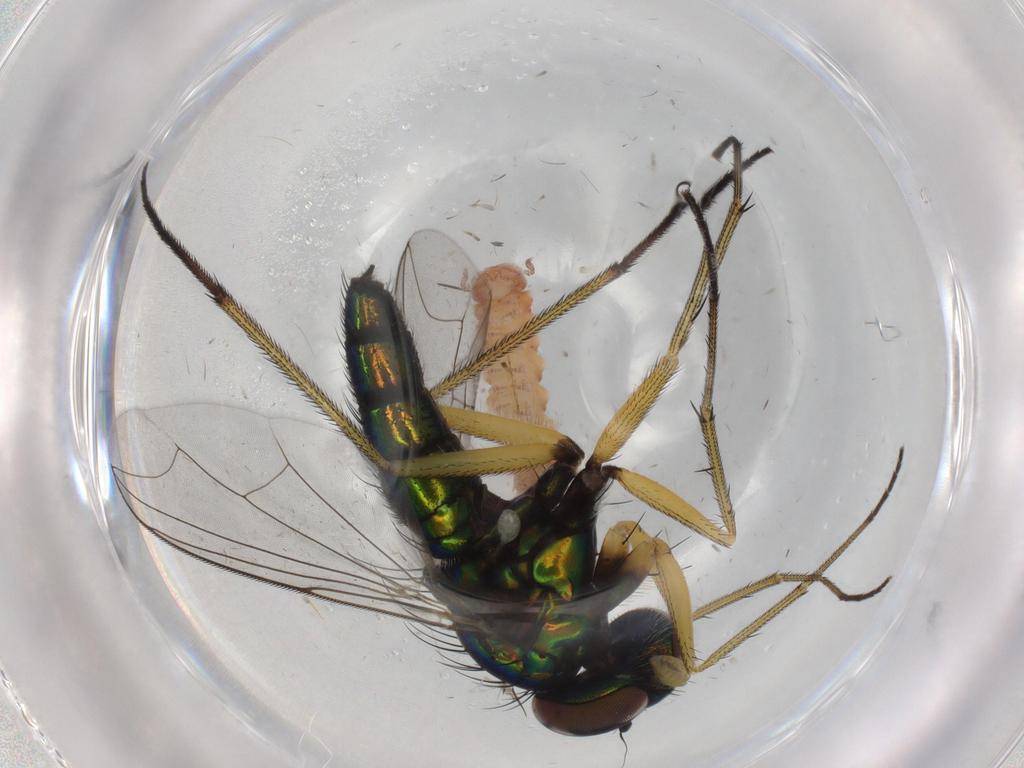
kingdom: Animalia
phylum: Arthropoda
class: Insecta
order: Diptera
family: Dolichopodidae
